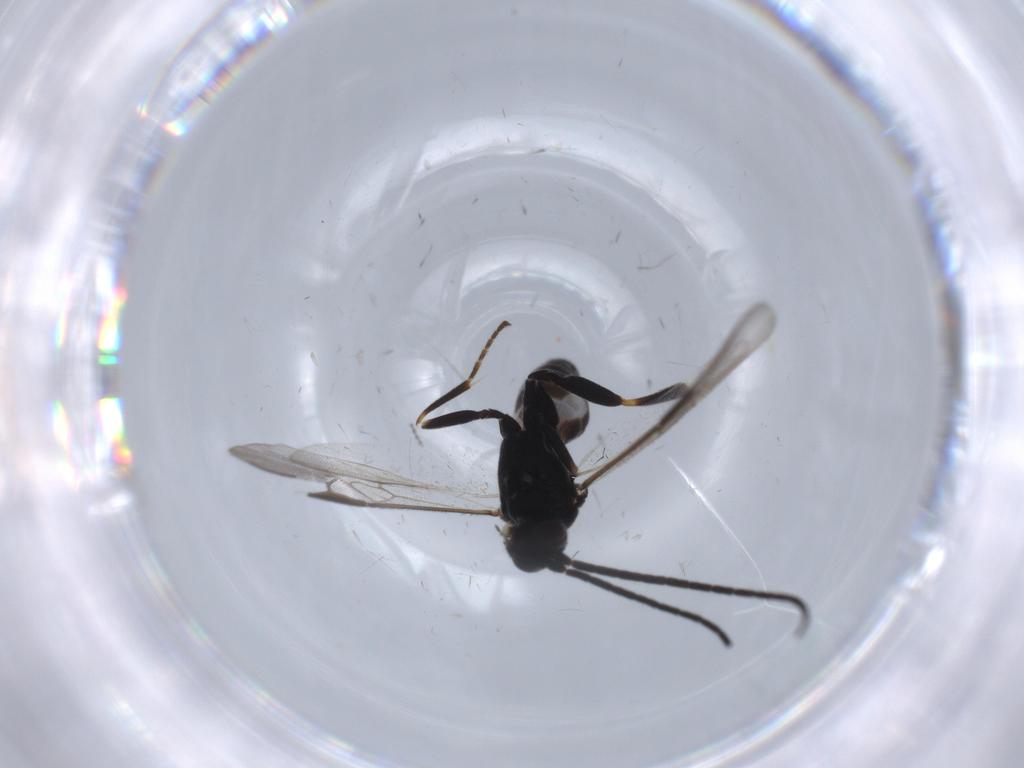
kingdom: Animalia
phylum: Arthropoda
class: Insecta
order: Hymenoptera
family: Braconidae
